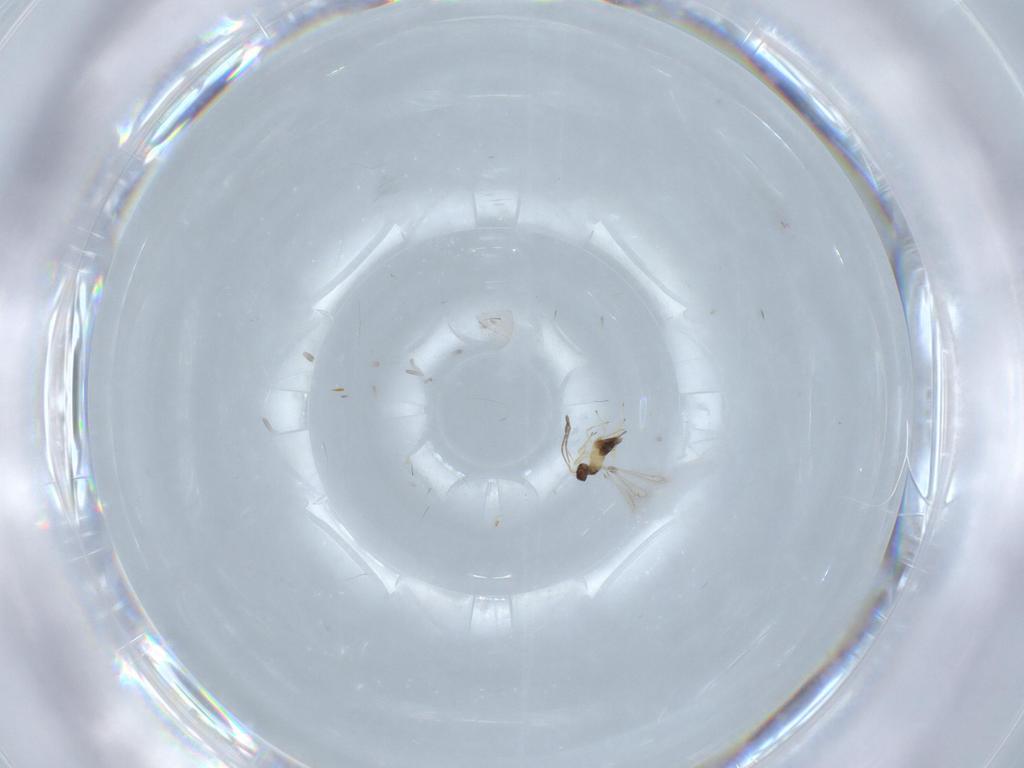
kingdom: Animalia
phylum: Arthropoda
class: Insecta
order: Hymenoptera
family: Mymaridae
